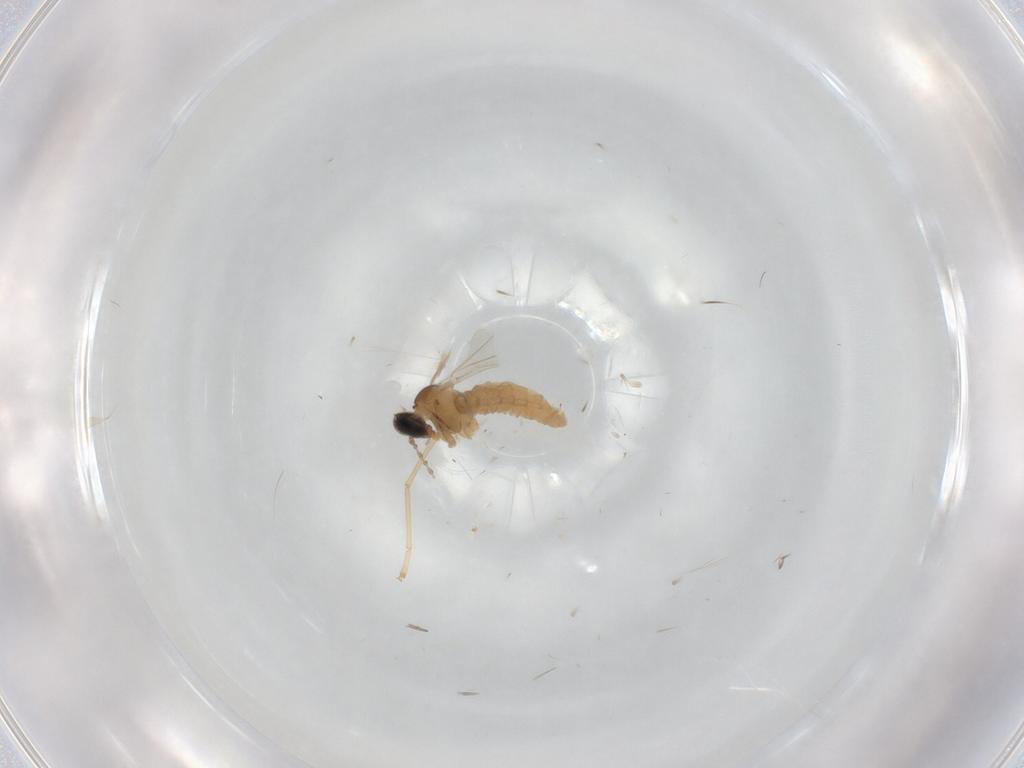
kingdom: Animalia
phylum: Arthropoda
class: Insecta
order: Diptera
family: Cecidomyiidae
